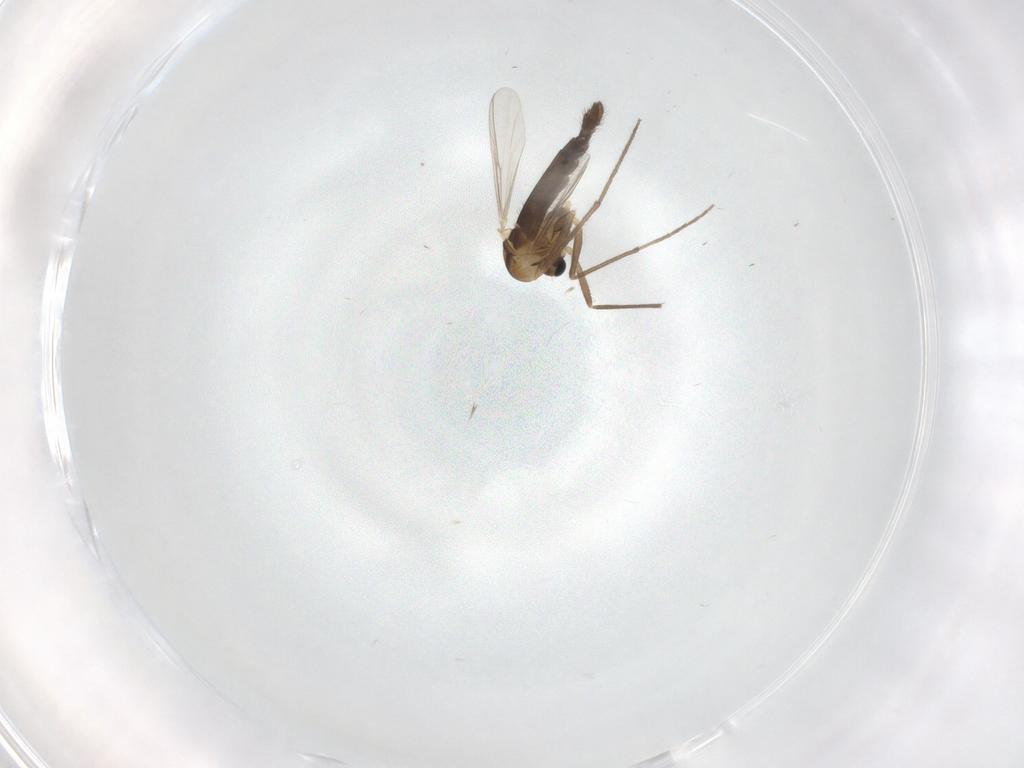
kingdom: Animalia
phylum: Arthropoda
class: Insecta
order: Diptera
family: Chironomidae
